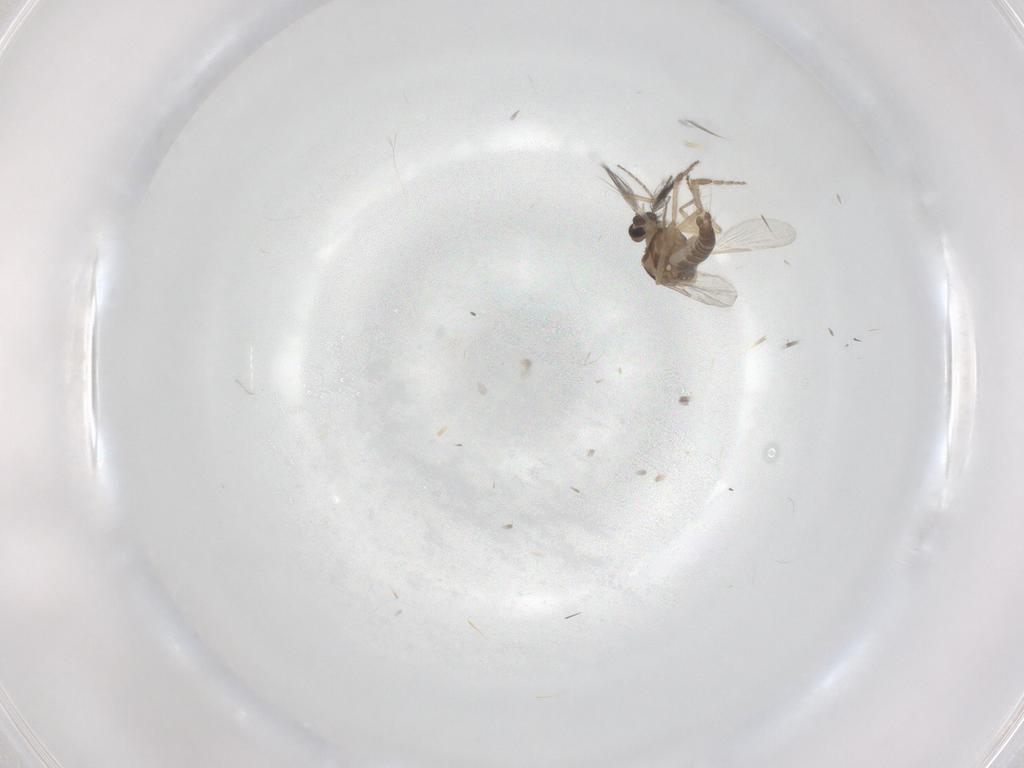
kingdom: Animalia
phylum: Arthropoda
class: Insecta
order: Diptera
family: Ceratopogonidae
